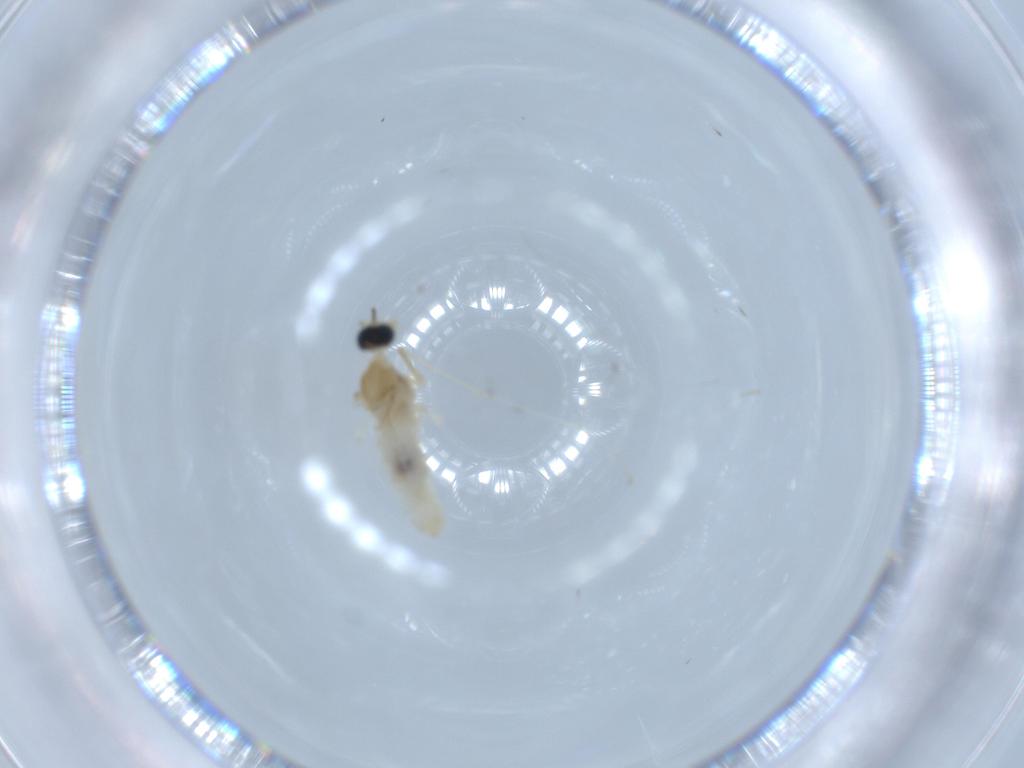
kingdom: Animalia
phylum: Arthropoda
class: Insecta
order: Diptera
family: Cecidomyiidae
